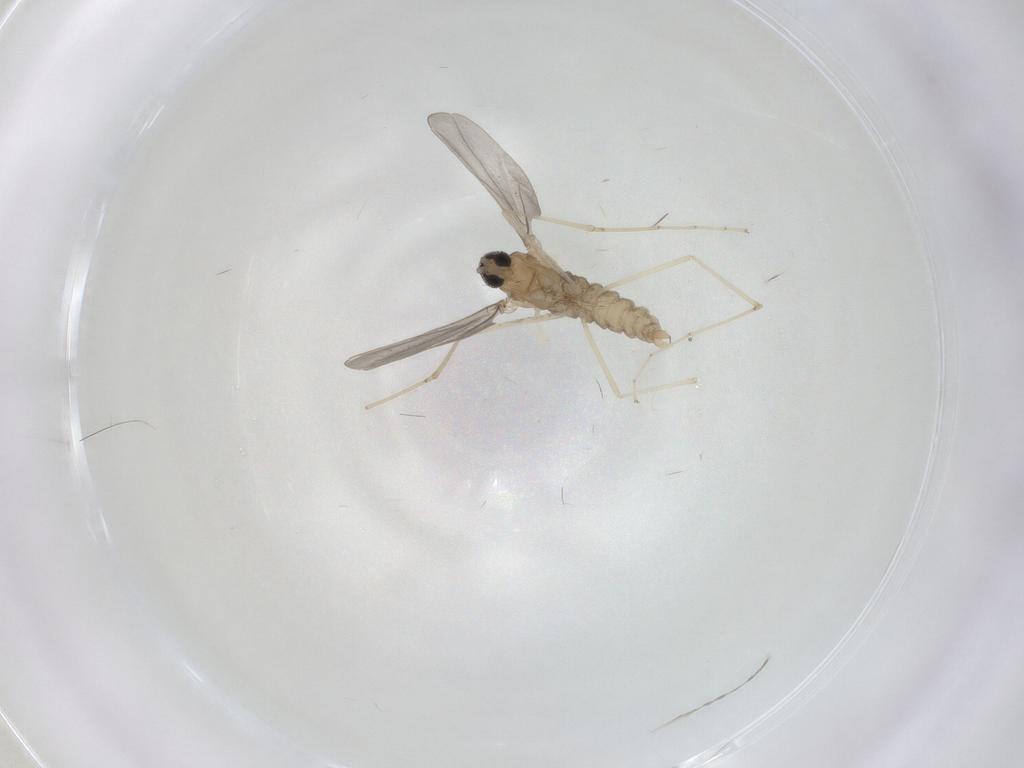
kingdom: Animalia
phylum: Arthropoda
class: Insecta
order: Diptera
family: Cecidomyiidae
